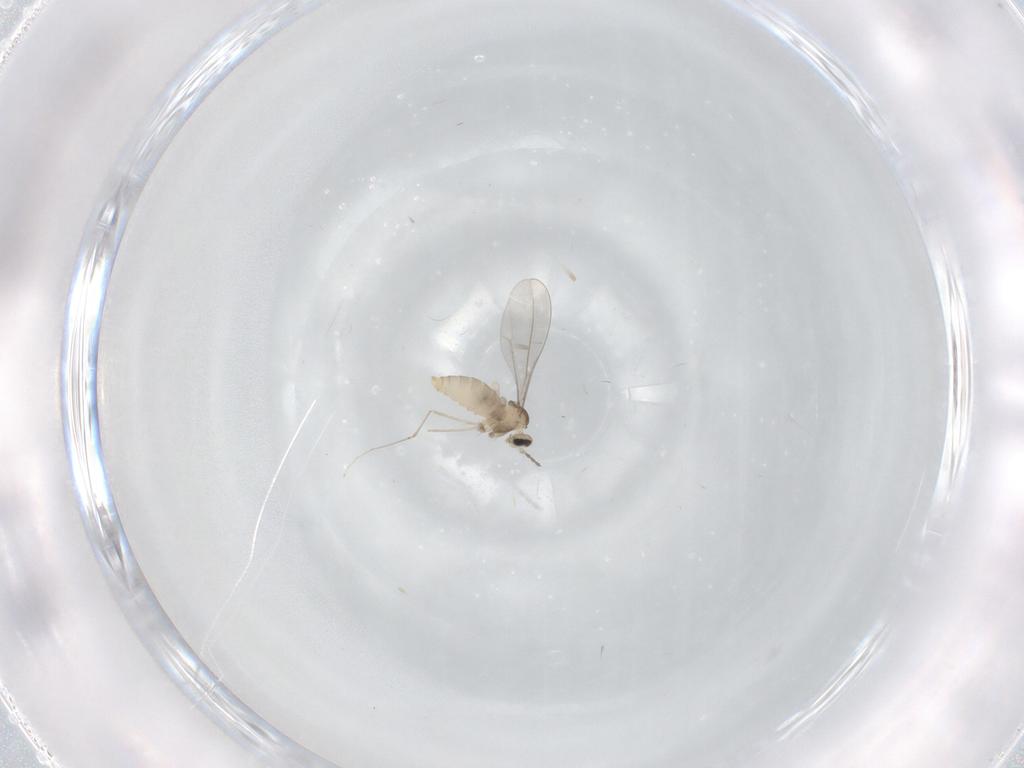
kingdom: Animalia
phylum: Arthropoda
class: Insecta
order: Diptera
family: Cecidomyiidae
